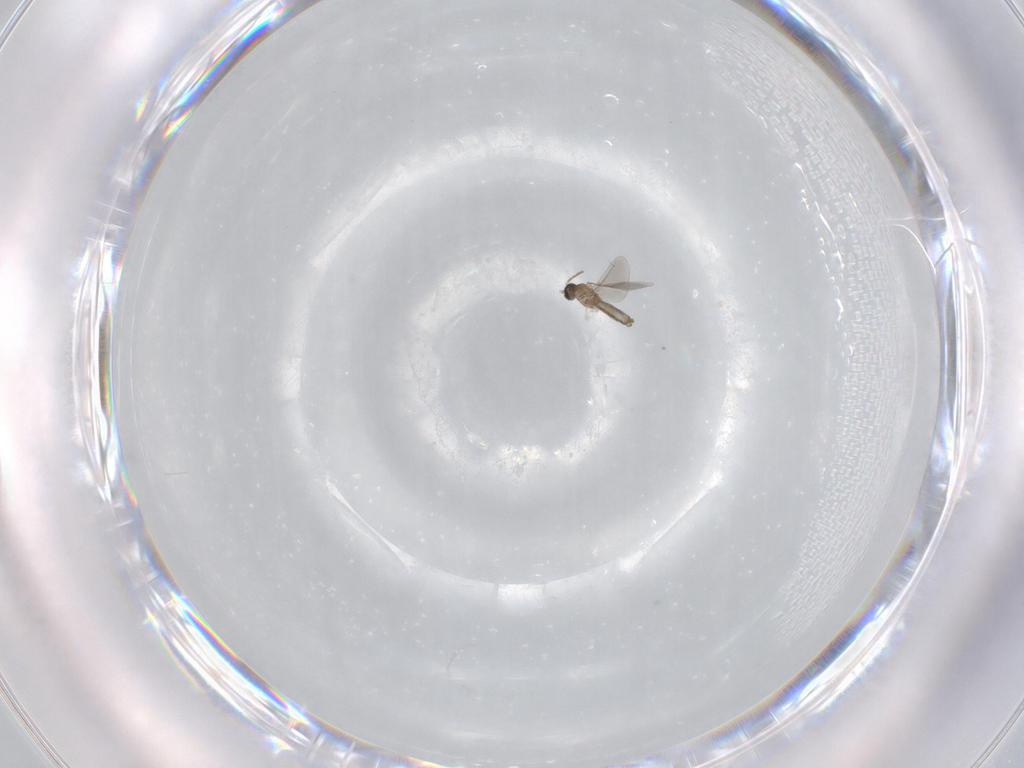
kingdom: Animalia
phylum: Arthropoda
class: Insecta
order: Diptera
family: Cecidomyiidae
